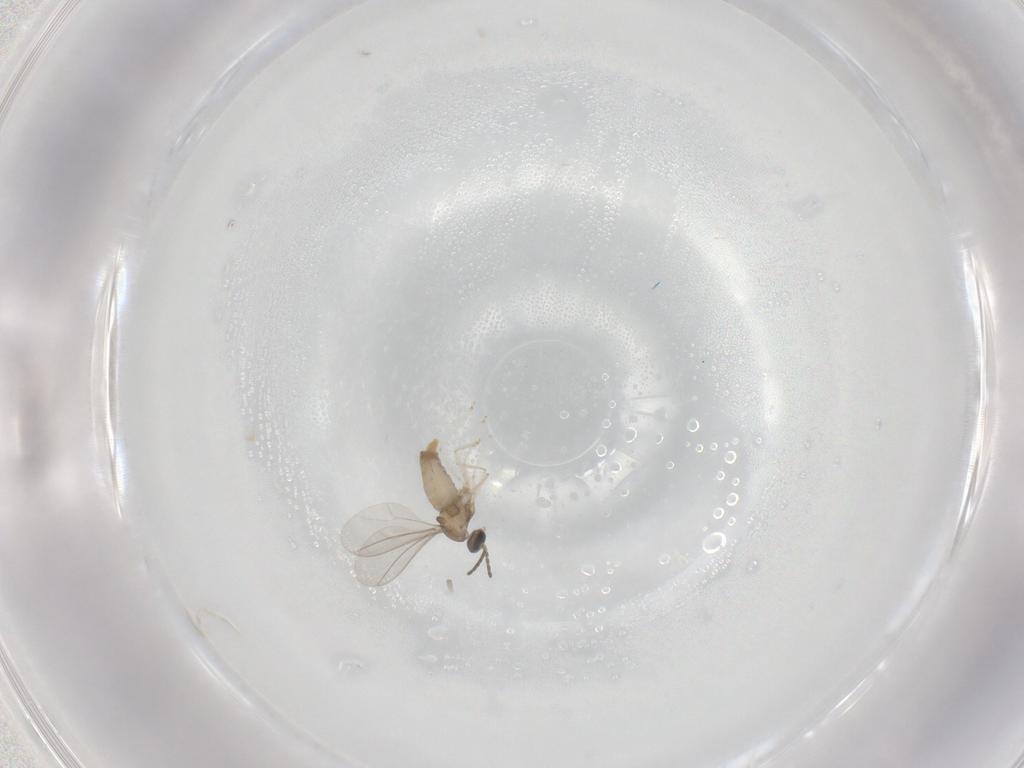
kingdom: Animalia
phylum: Arthropoda
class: Insecta
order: Diptera
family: Cecidomyiidae
